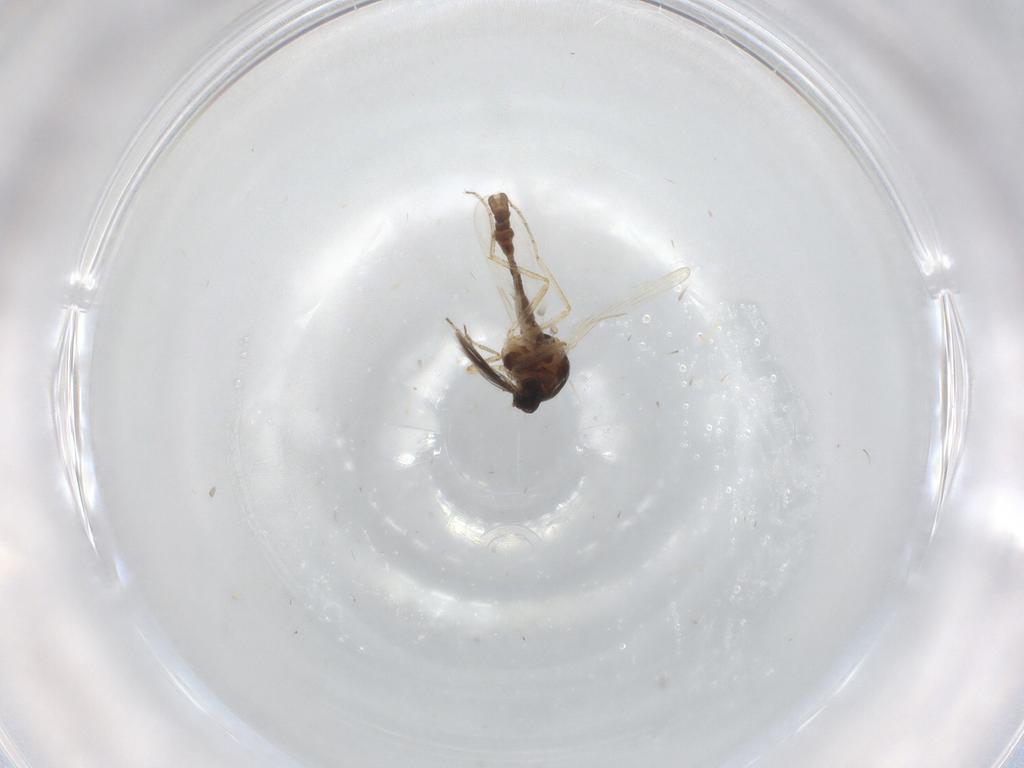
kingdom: Animalia
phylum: Arthropoda
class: Insecta
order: Diptera
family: Ceratopogonidae
